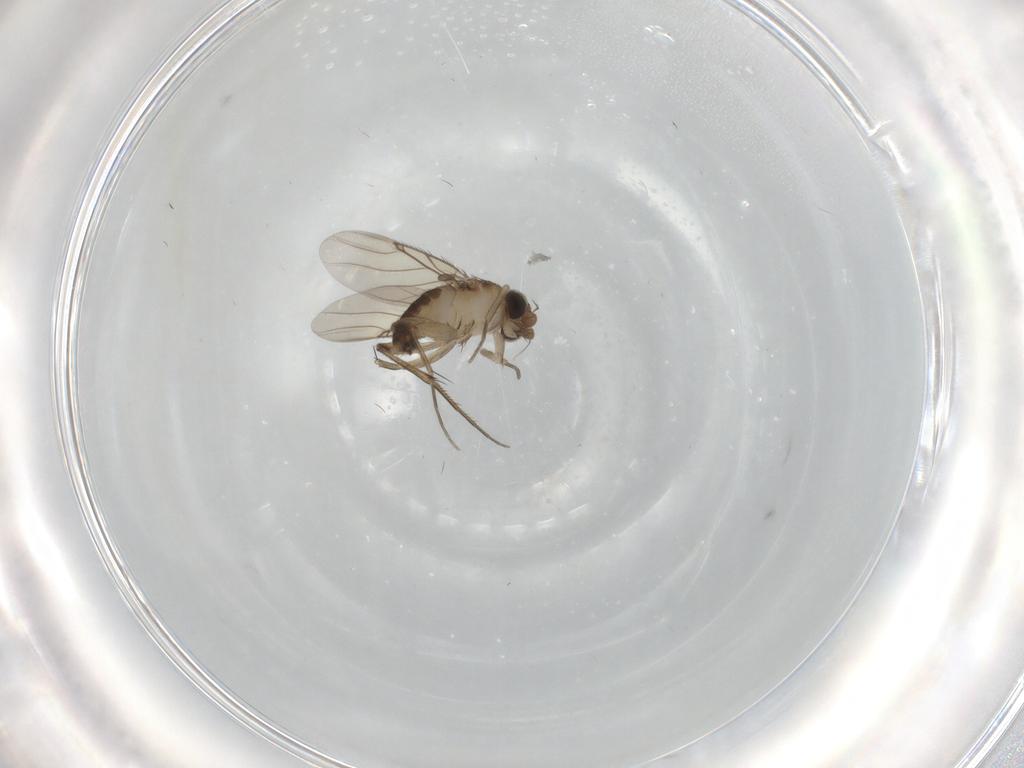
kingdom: Animalia
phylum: Arthropoda
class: Insecta
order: Diptera
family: Phoridae
